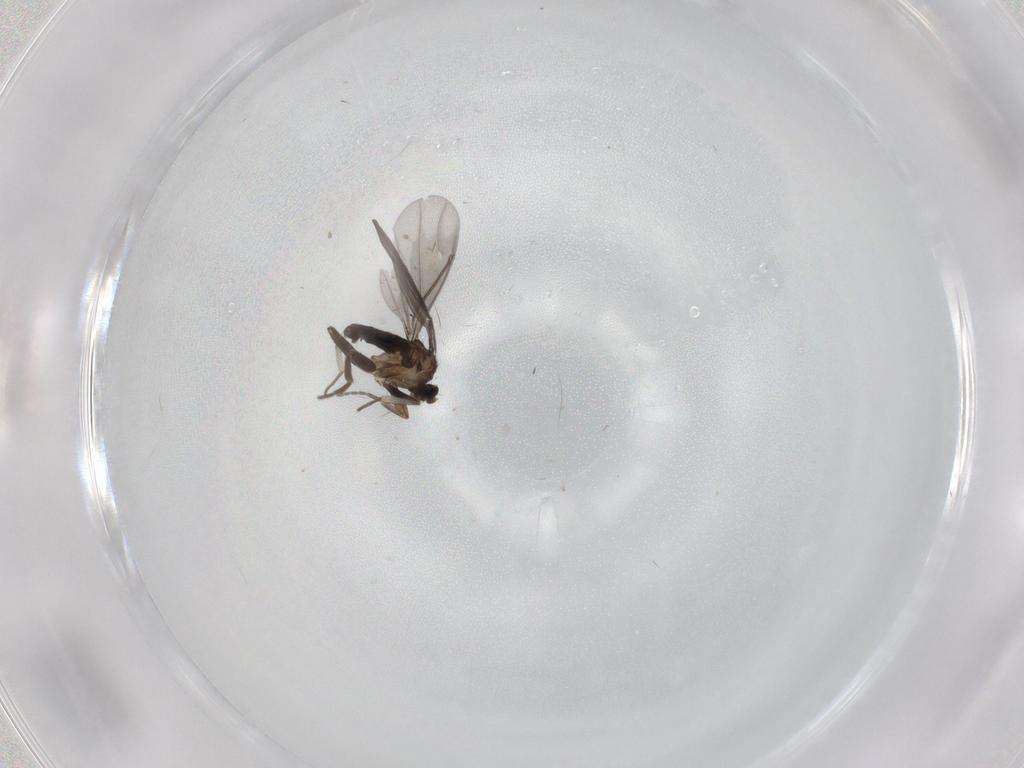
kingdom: Animalia
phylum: Arthropoda
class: Insecta
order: Diptera
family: Phoridae
